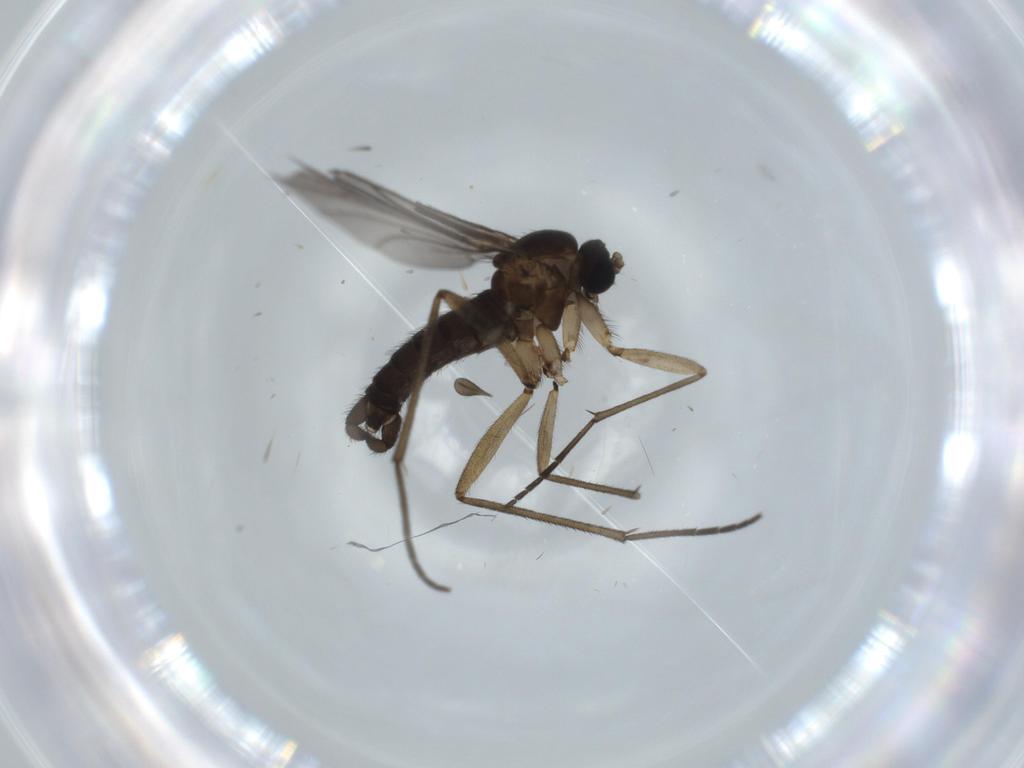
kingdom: Animalia
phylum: Arthropoda
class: Insecta
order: Diptera
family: Sciaridae
